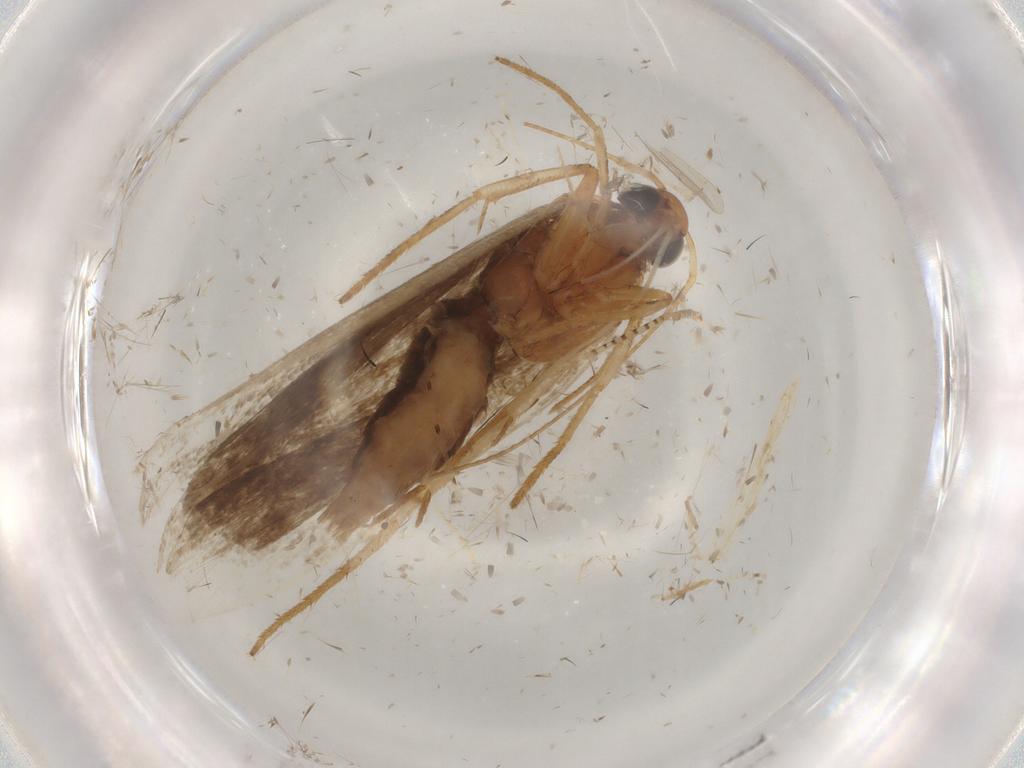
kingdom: Animalia
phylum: Arthropoda
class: Insecta
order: Lepidoptera
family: Gelechiidae
